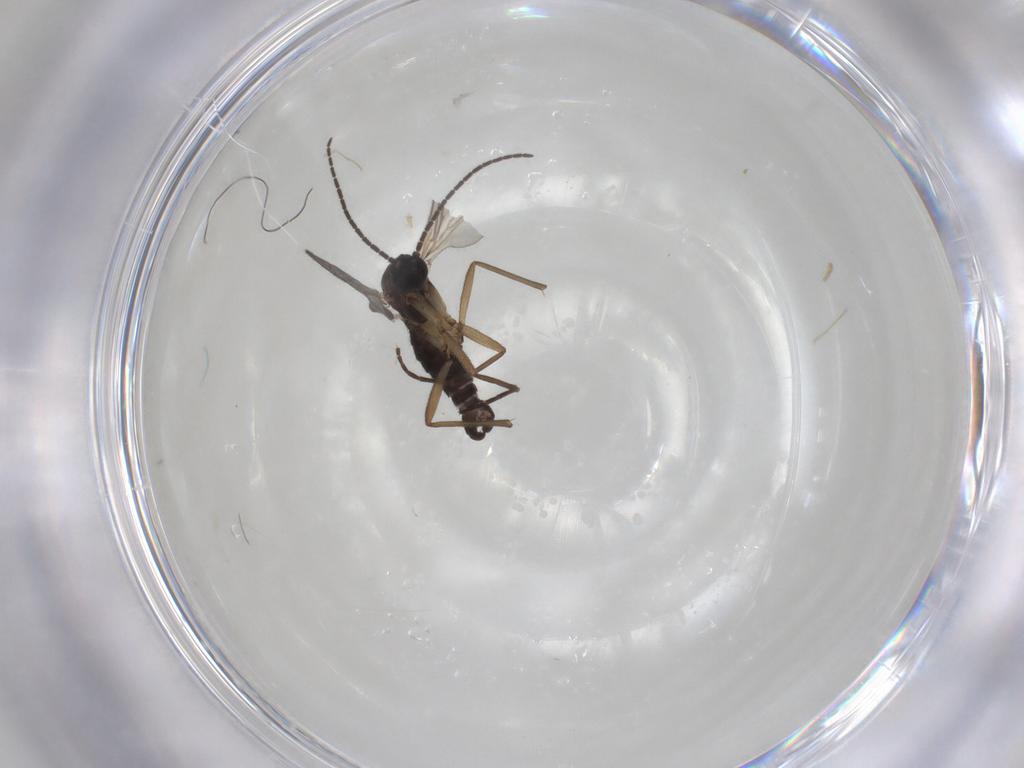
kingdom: Animalia
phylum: Arthropoda
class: Insecta
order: Diptera
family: Sciaridae
